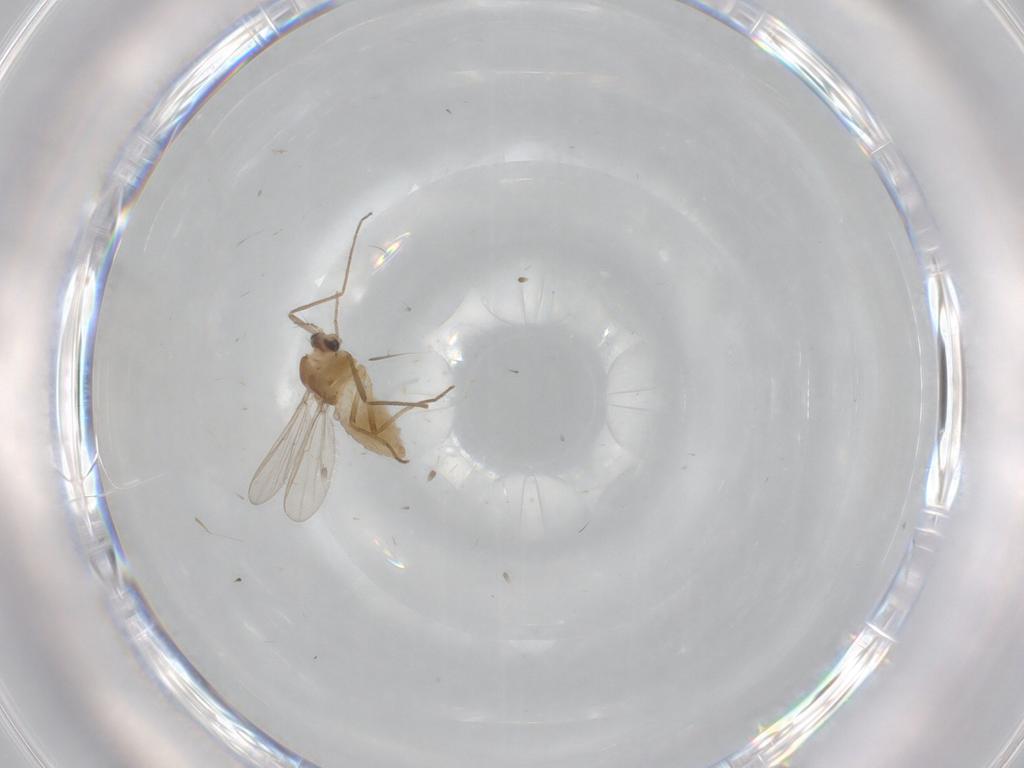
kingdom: Animalia
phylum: Arthropoda
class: Insecta
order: Diptera
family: Chironomidae
